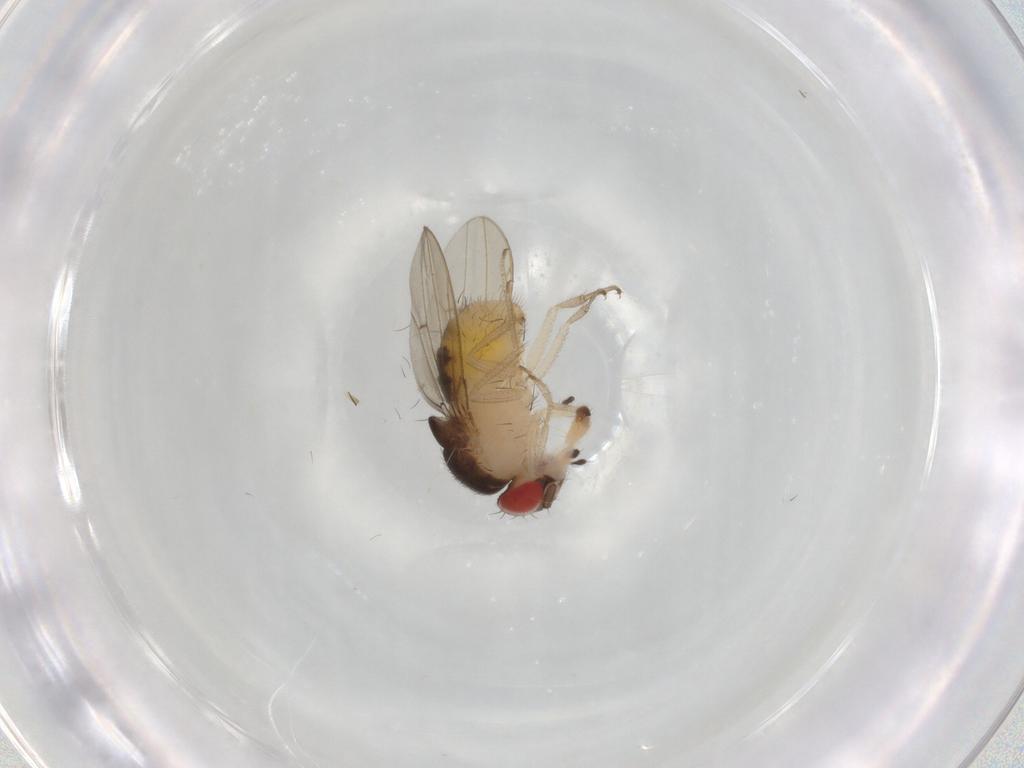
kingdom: Animalia
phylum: Arthropoda
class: Insecta
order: Diptera
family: Drosophilidae
